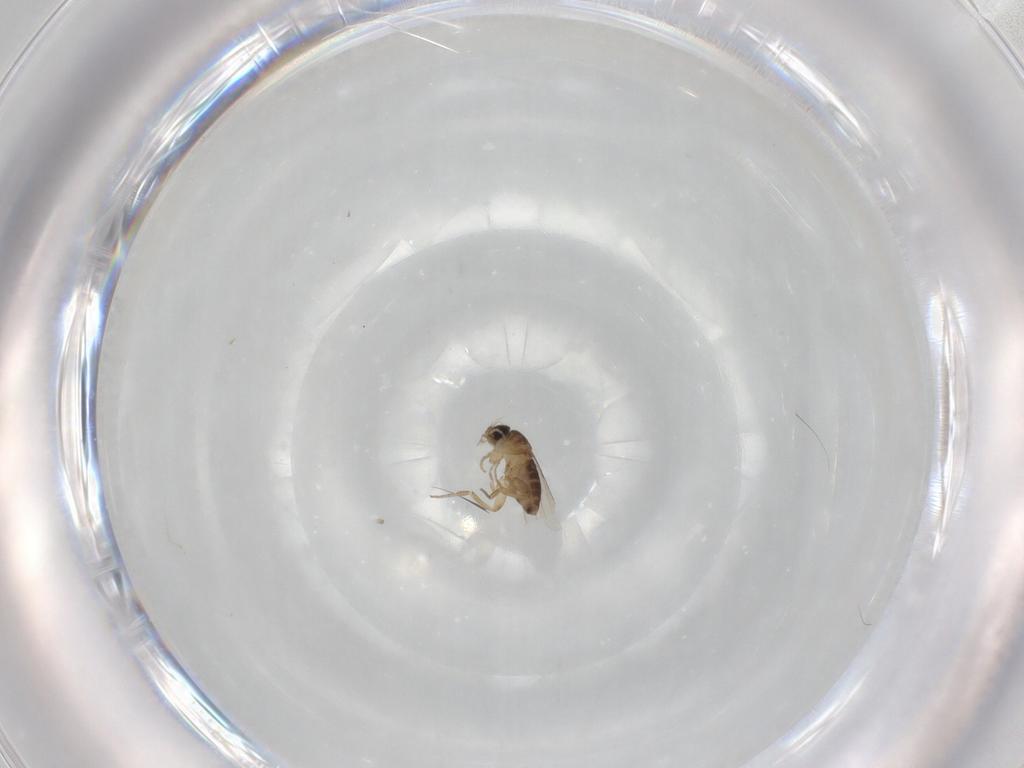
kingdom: Animalia
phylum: Arthropoda
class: Insecta
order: Diptera
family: Phoridae
